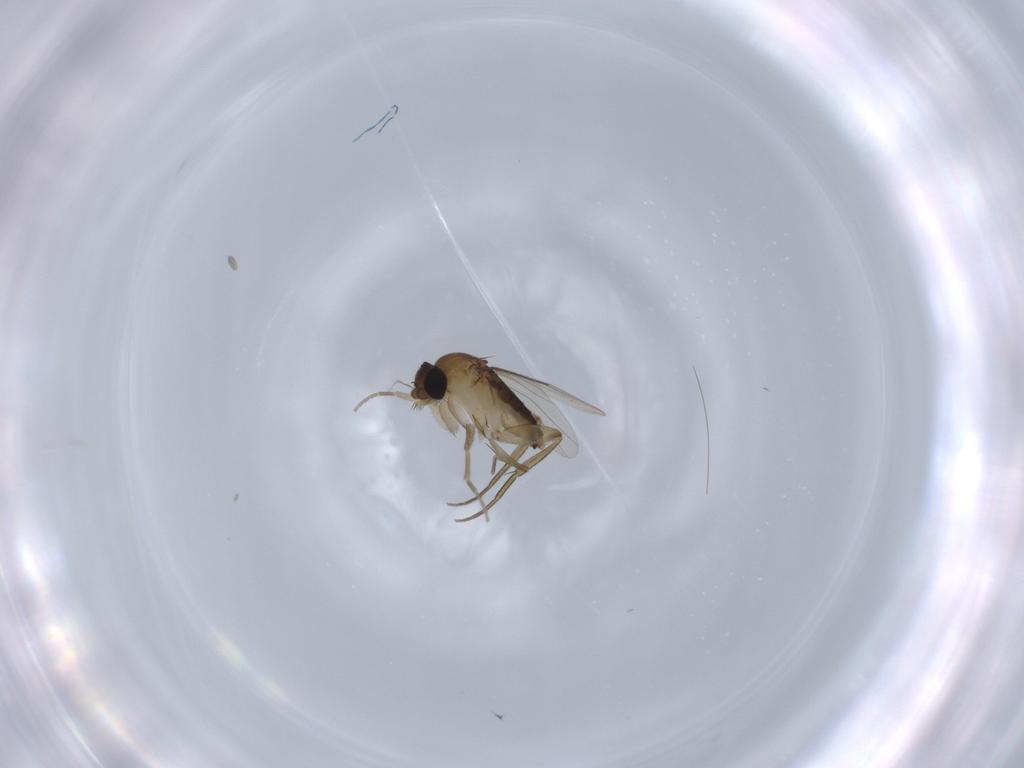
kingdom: Animalia
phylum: Arthropoda
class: Insecta
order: Diptera
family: Phoridae
